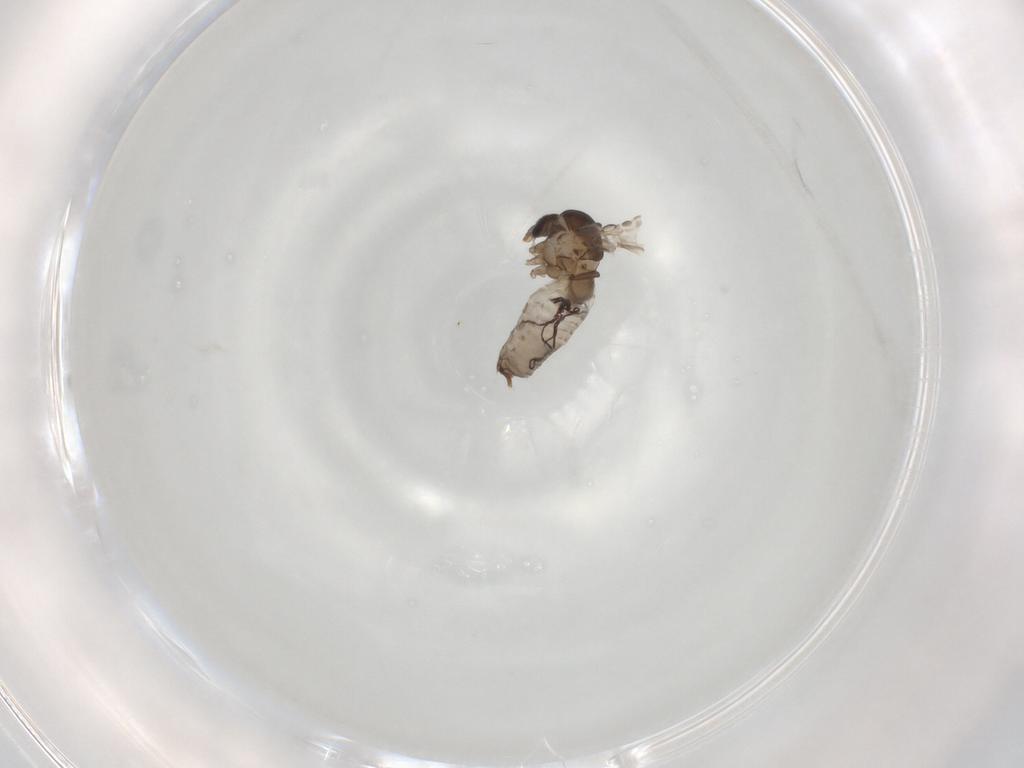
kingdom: Animalia
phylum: Arthropoda
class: Insecta
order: Diptera
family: Psychodidae
